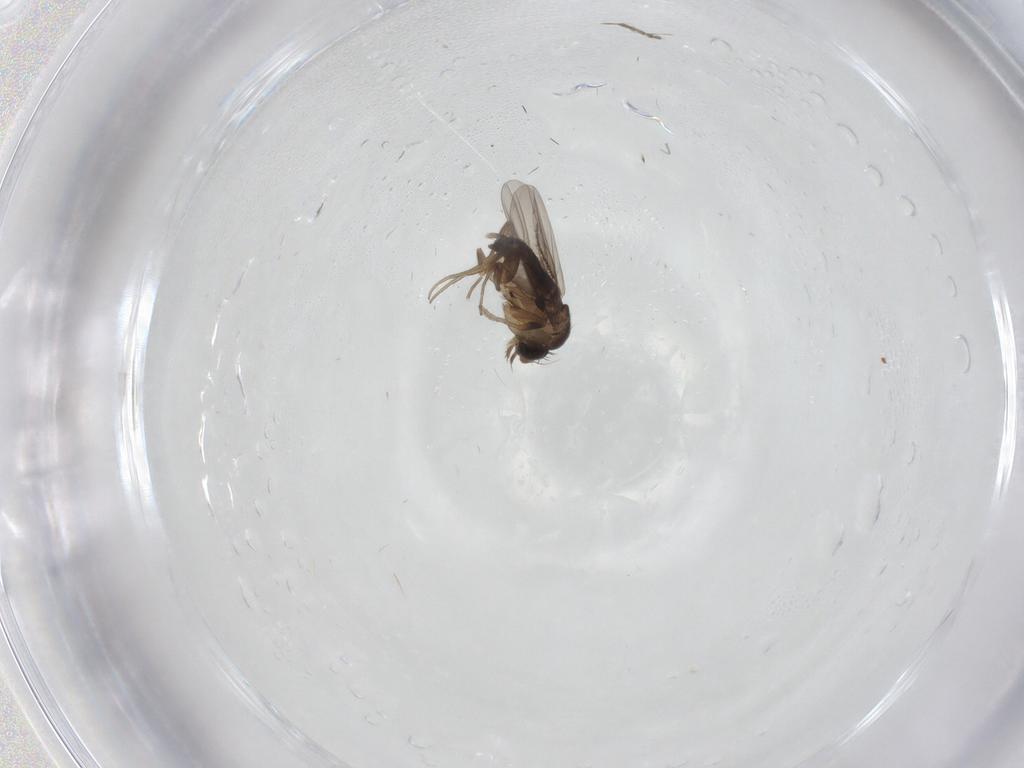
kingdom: Animalia
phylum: Arthropoda
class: Insecta
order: Diptera
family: Phoridae
